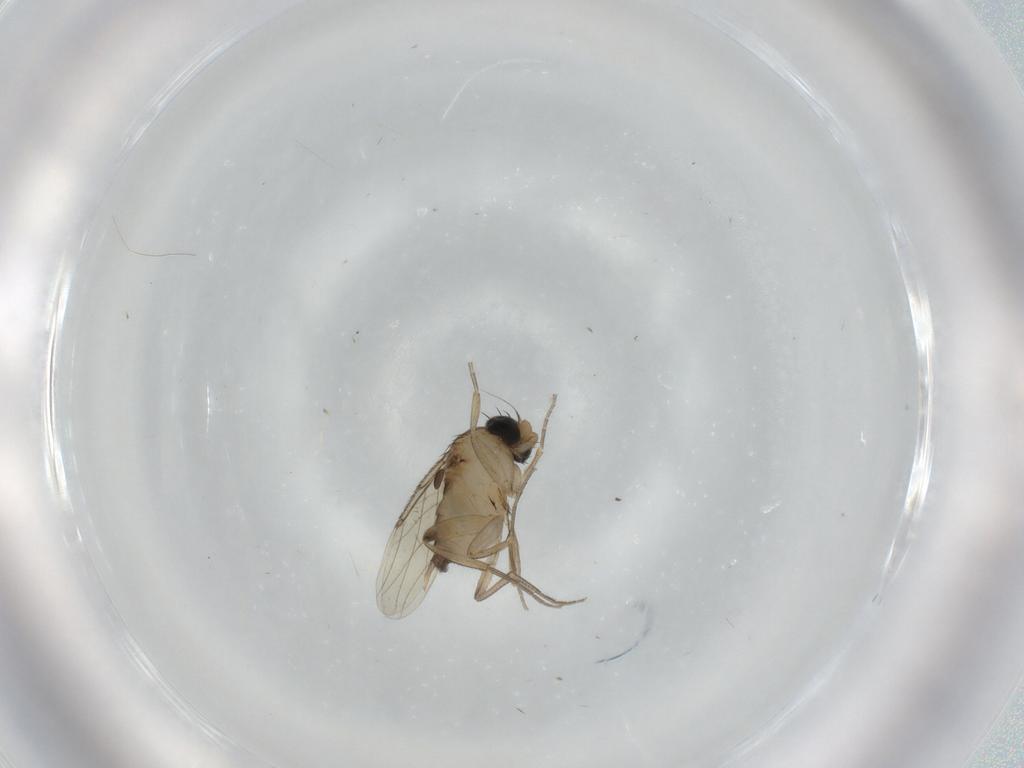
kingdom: Animalia
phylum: Arthropoda
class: Insecta
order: Diptera
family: Phoridae
